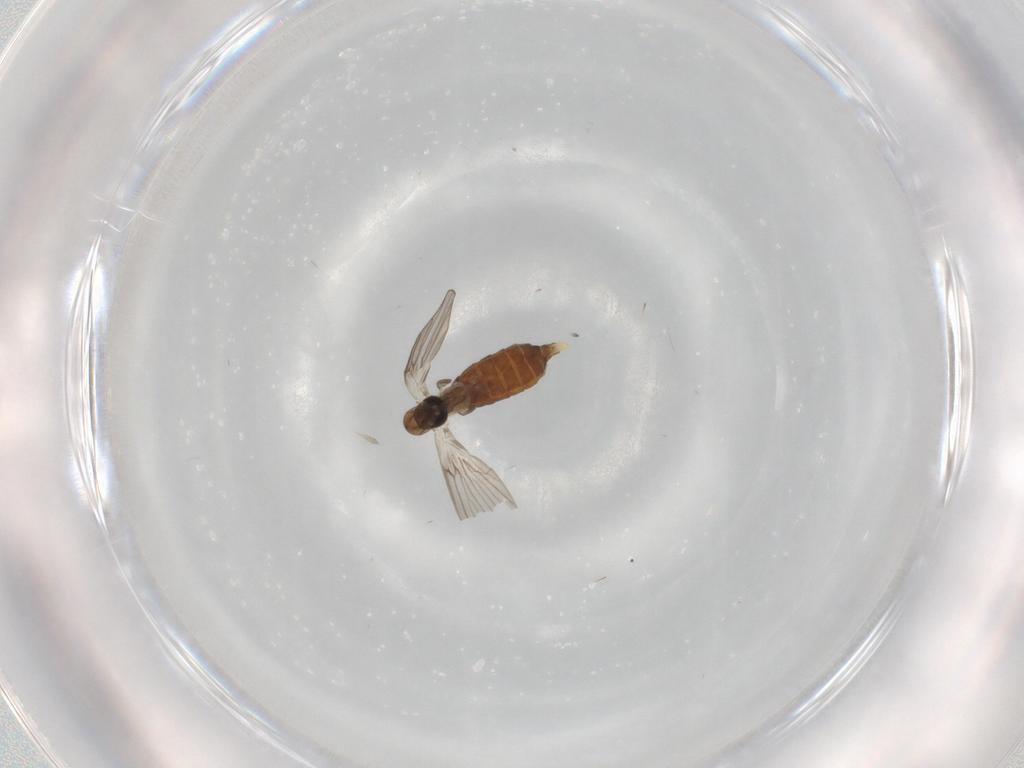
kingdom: Animalia
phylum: Arthropoda
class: Insecta
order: Diptera
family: Psychodidae
